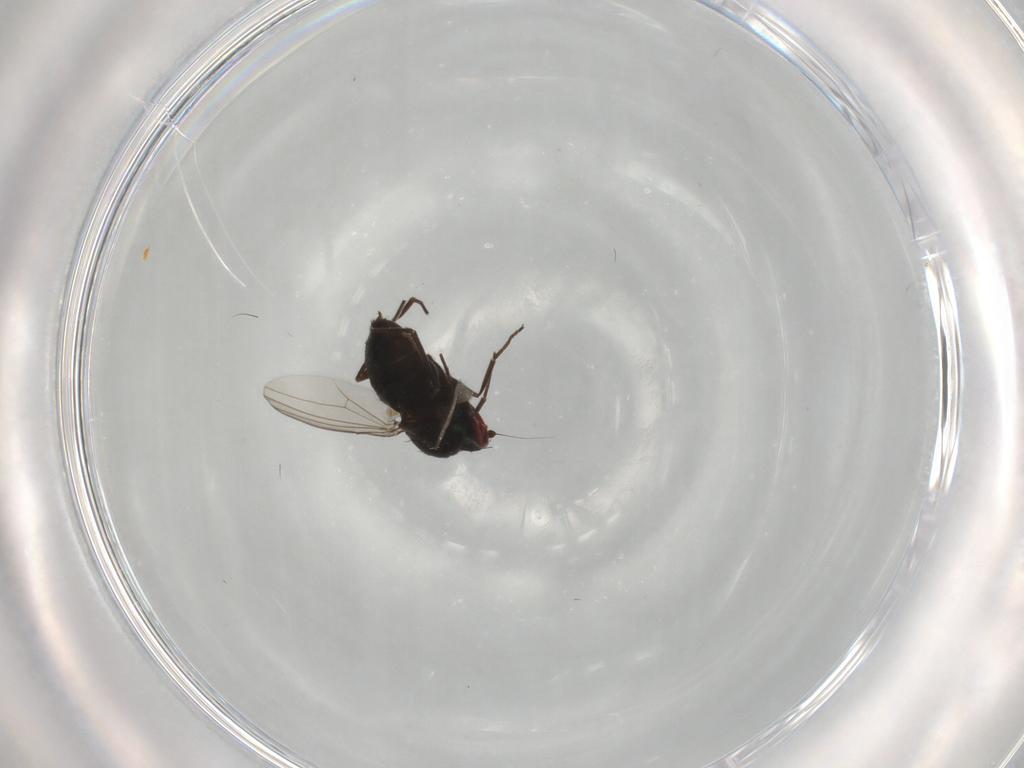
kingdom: Animalia
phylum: Arthropoda
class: Insecta
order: Diptera
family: Dolichopodidae
